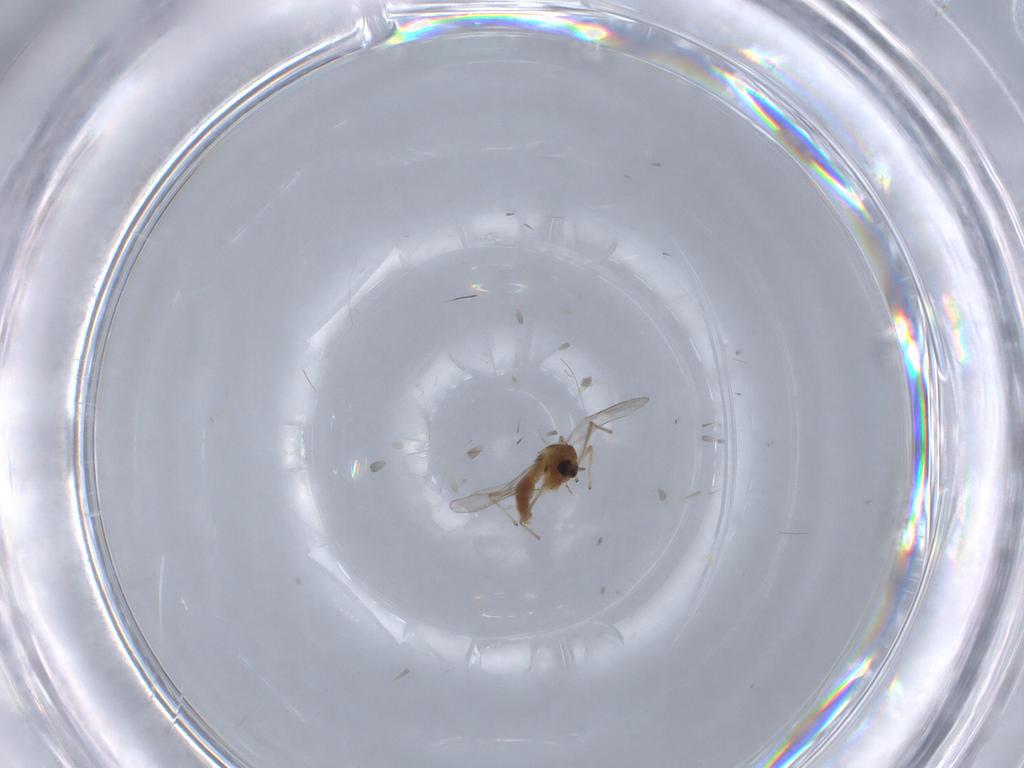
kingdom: Animalia
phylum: Arthropoda
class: Insecta
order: Diptera
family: Chironomidae
